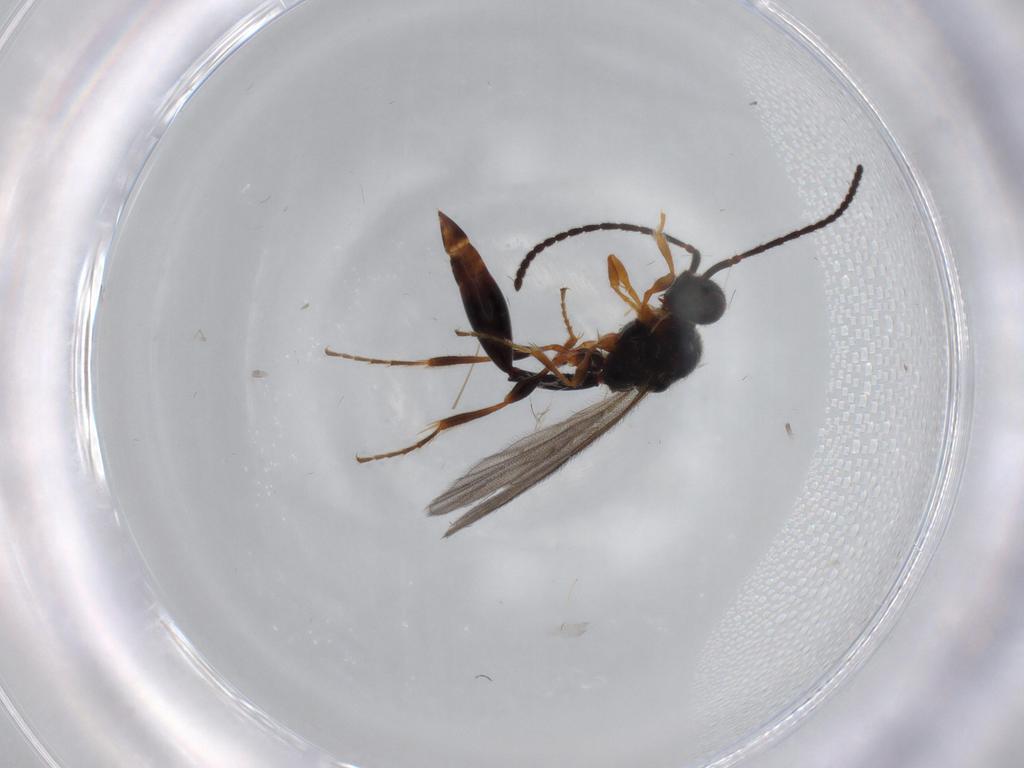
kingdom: Animalia
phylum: Arthropoda
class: Insecta
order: Hymenoptera
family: Diapriidae
